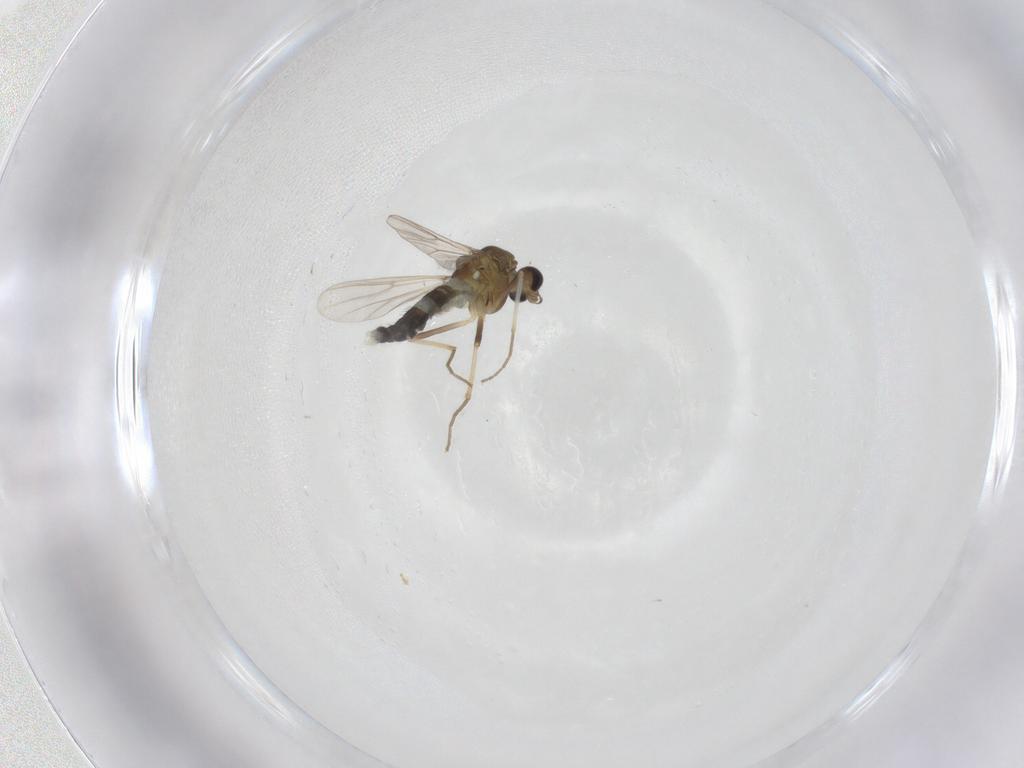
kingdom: Animalia
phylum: Arthropoda
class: Insecta
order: Diptera
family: Chironomidae
